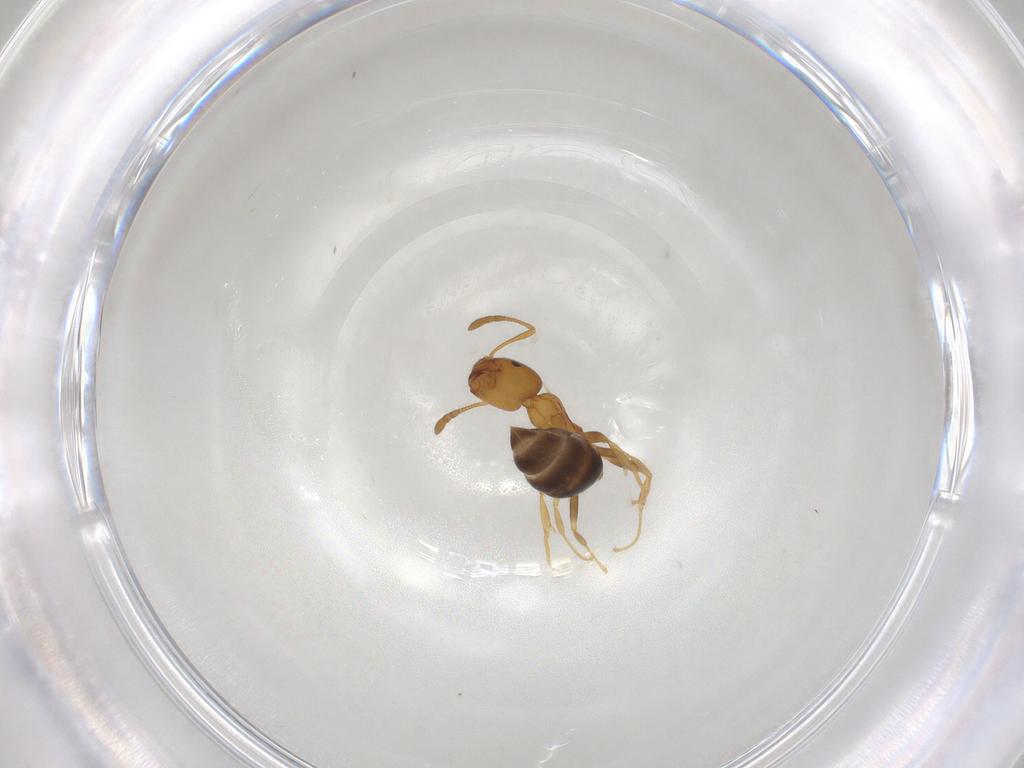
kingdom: Animalia
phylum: Arthropoda
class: Insecta
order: Hymenoptera
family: Formicidae
